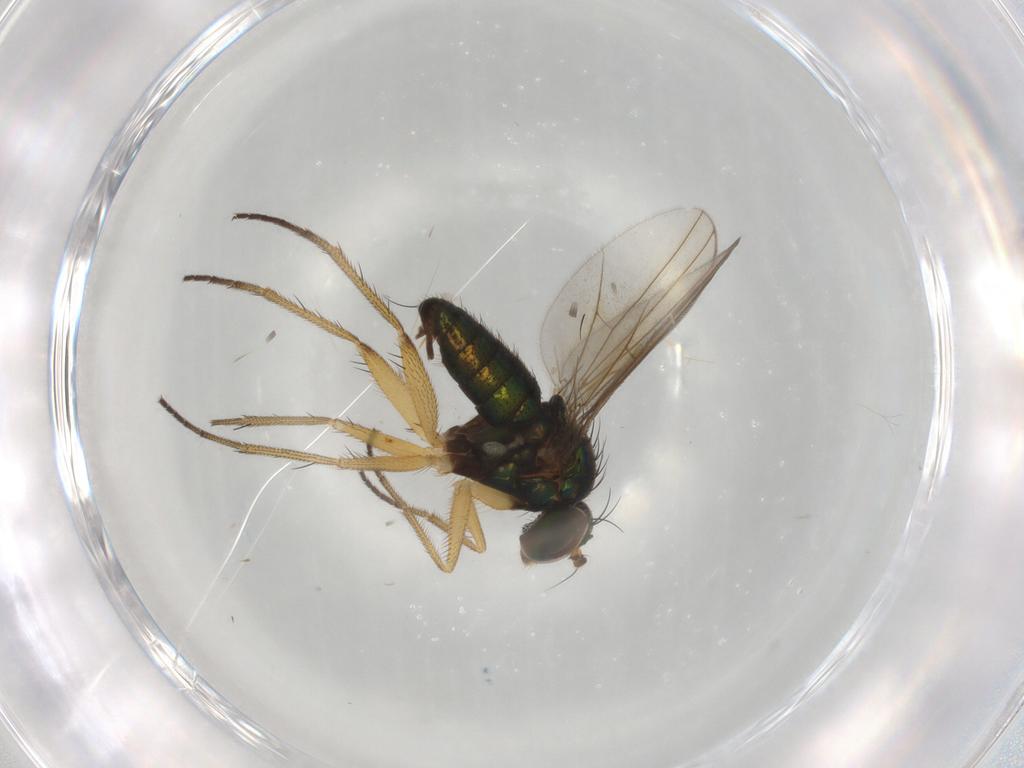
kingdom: Animalia
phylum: Arthropoda
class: Insecta
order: Diptera
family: Dolichopodidae
